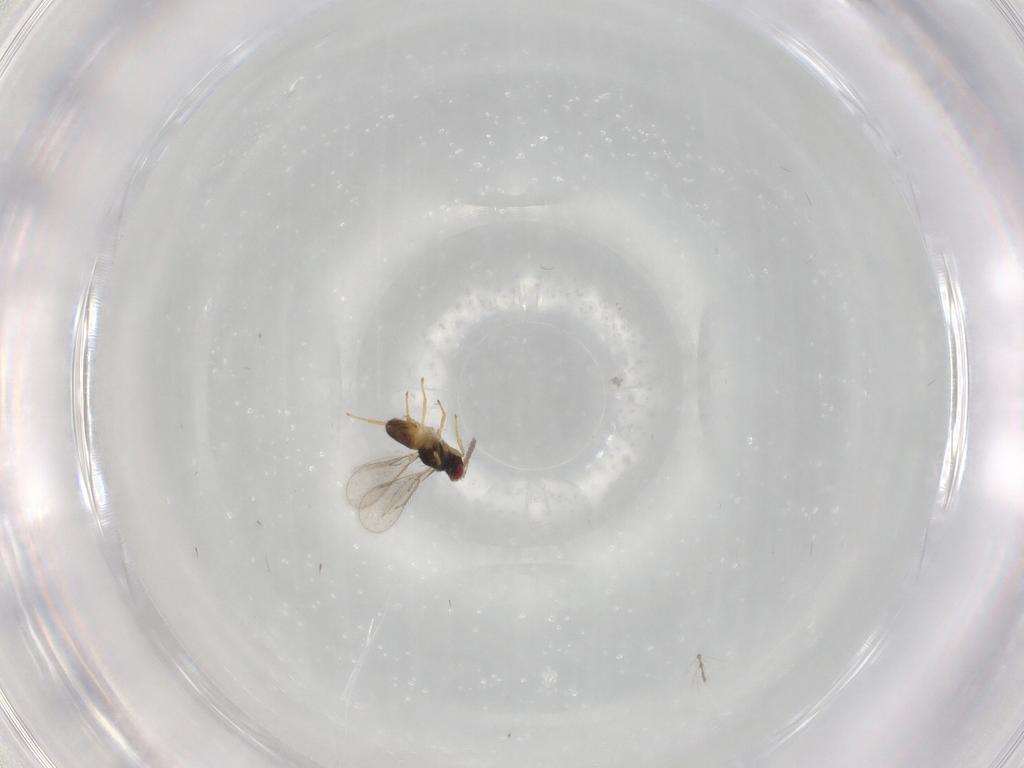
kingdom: Animalia
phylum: Arthropoda
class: Insecta
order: Hymenoptera
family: Eulophidae
